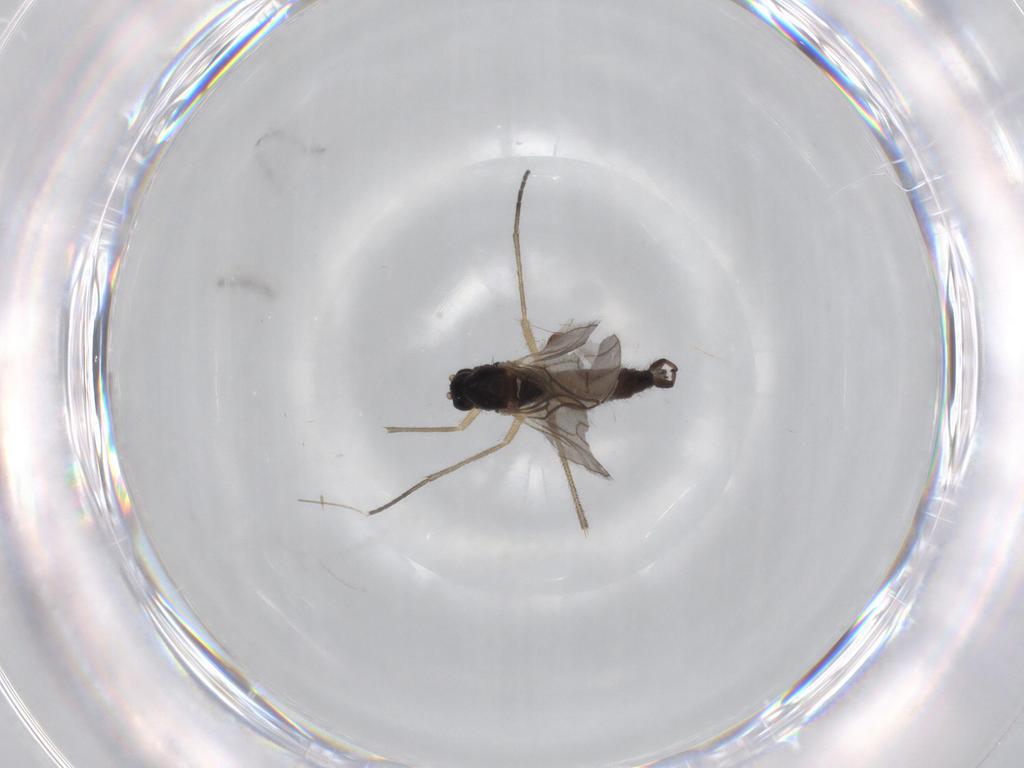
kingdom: Animalia
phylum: Arthropoda
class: Insecta
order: Diptera
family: Sciaridae
